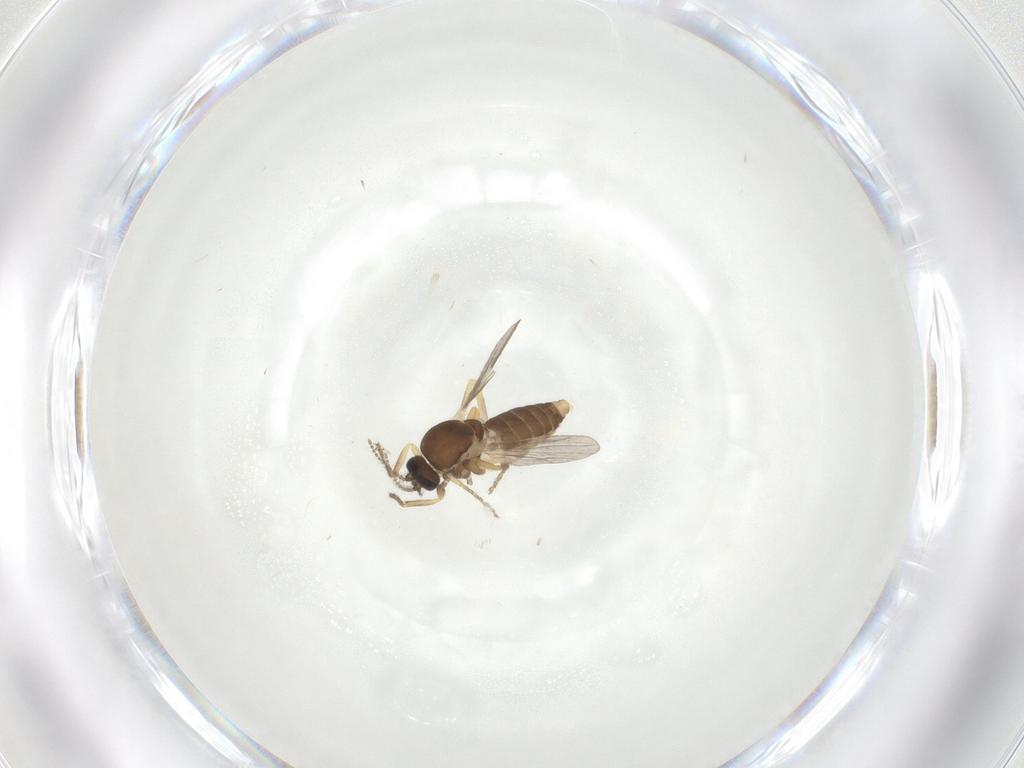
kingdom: Animalia
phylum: Arthropoda
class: Insecta
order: Diptera
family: Ceratopogonidae
